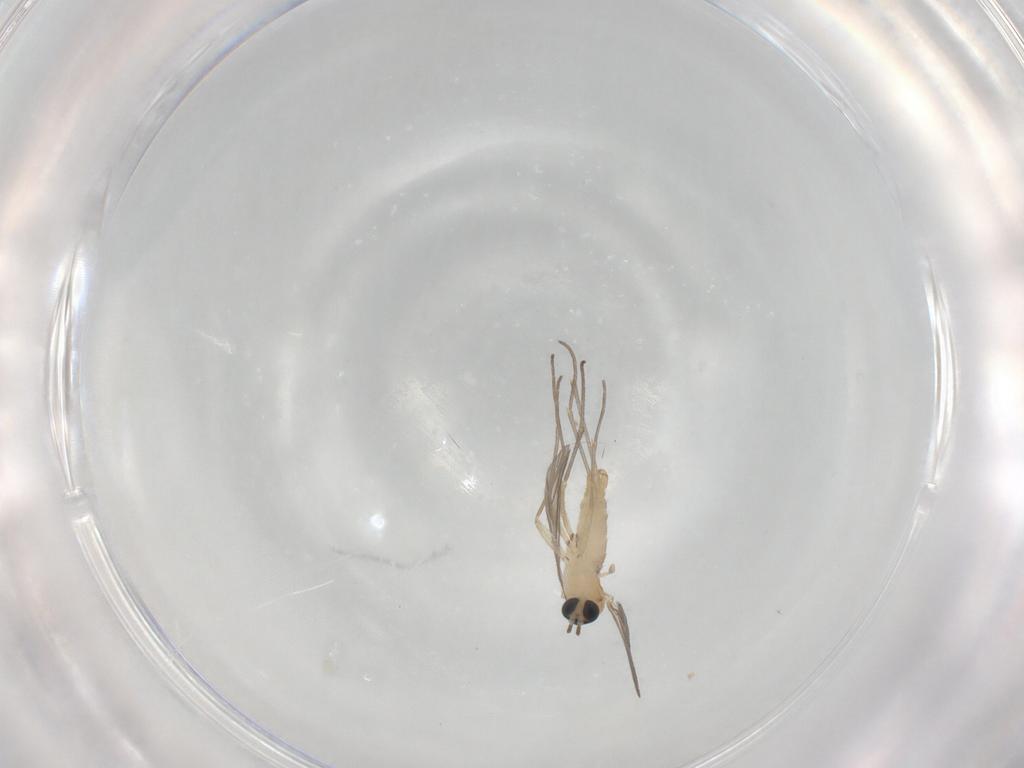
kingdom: Animalia
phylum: Arthropoda
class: Insecta
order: Diptera
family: Sciaridae
